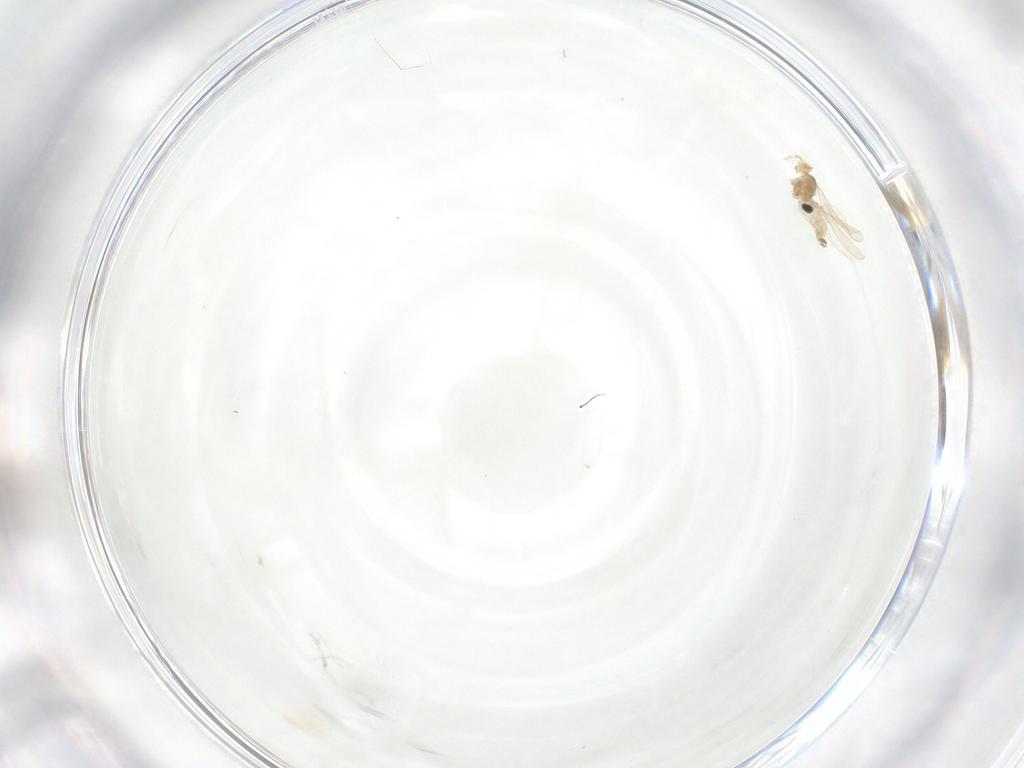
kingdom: Animalia
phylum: Arthropoda
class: Insecta
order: Diptera
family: Cecidomyiidae
